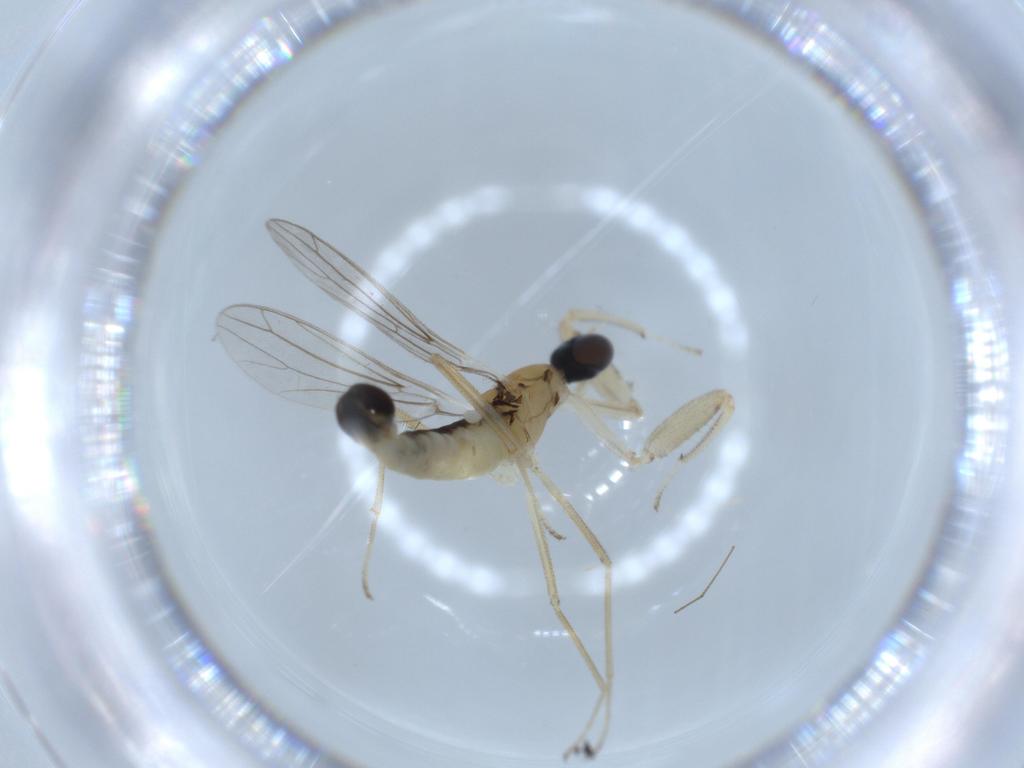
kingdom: Animalia
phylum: Arthropoda
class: Insecta
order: Diptera
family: Empididae
